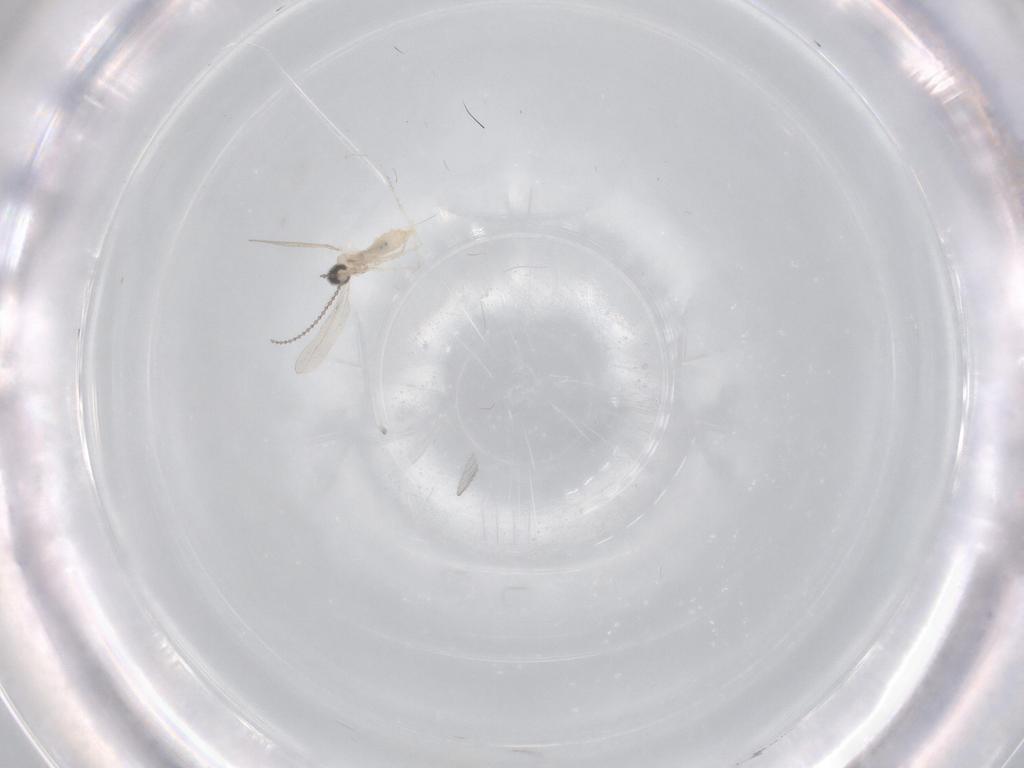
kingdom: Animalia
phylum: Arthropoda
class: Insecta
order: Diptera
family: Cecidomyiidae
